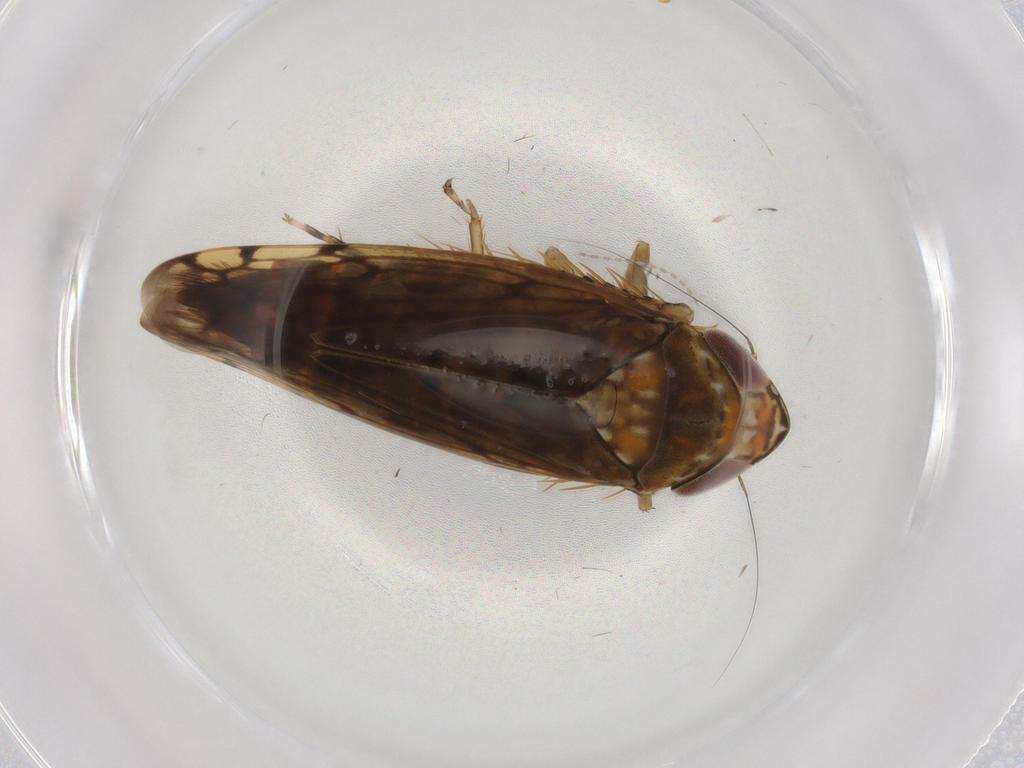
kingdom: Animalia
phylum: Arthropoda
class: Insecta
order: Hemiptera
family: Cicadellidae
